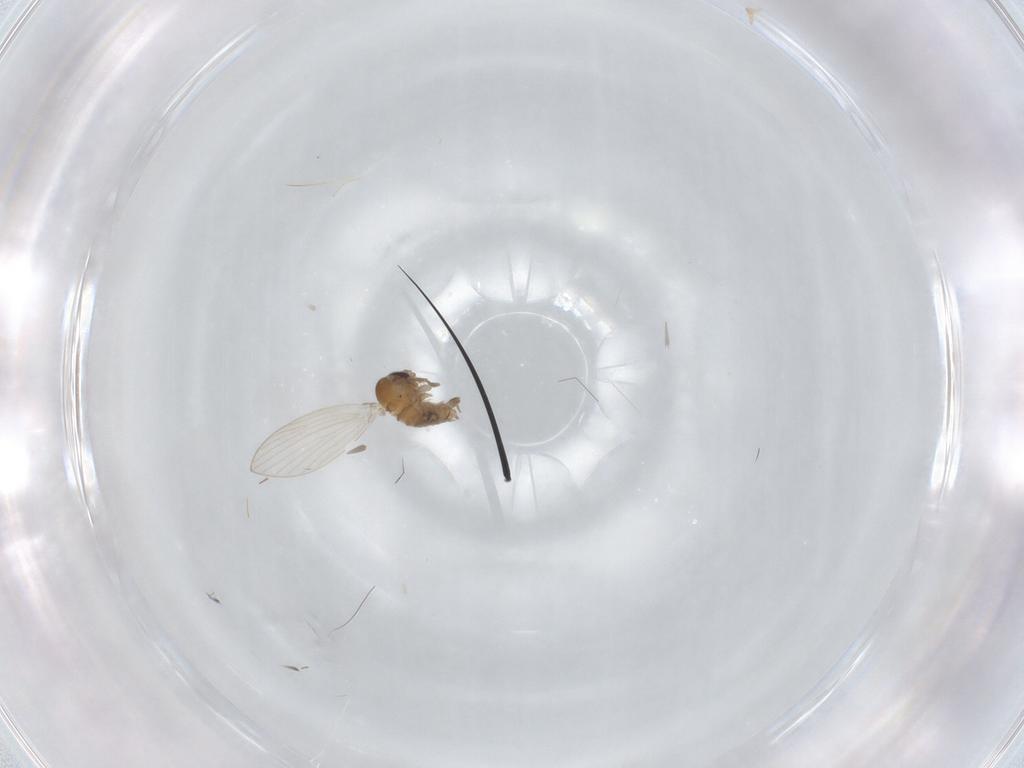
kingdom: Animalia
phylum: Arthropoda
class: Insecta
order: Diptera
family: Psychodidae
